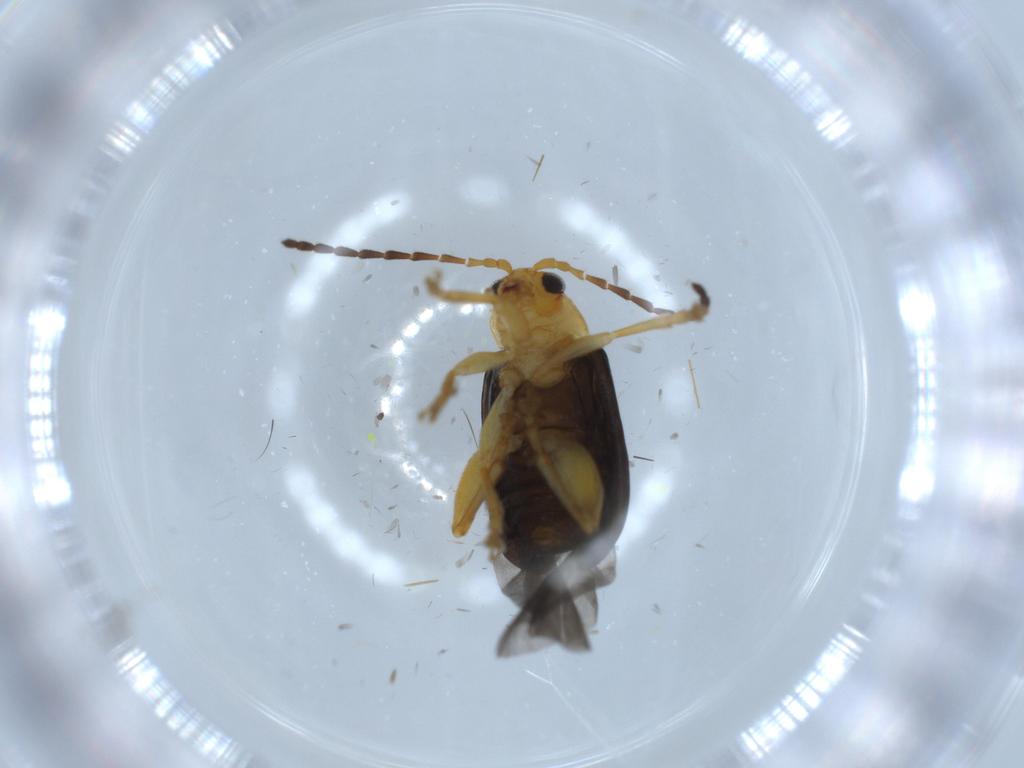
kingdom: Animalia
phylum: Arthropoda
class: Insecta
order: Coleoptera
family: Chrysomelidae
